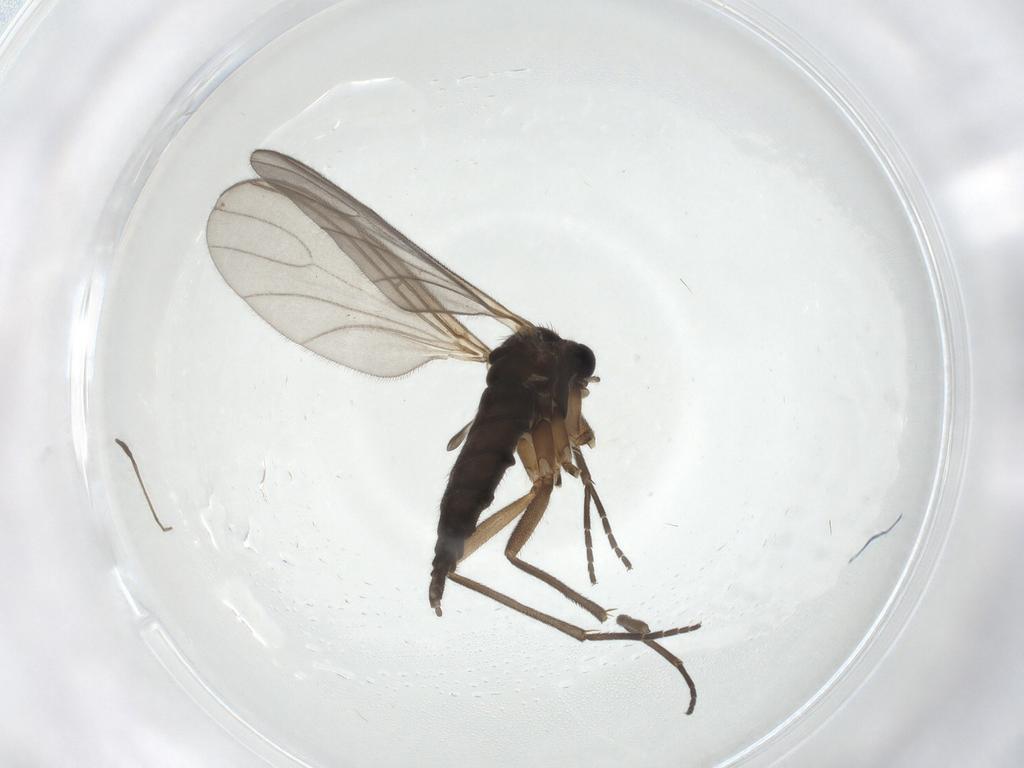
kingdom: Animalia
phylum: Arthropoda
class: Insecta
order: Diptera
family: Sciaridae
